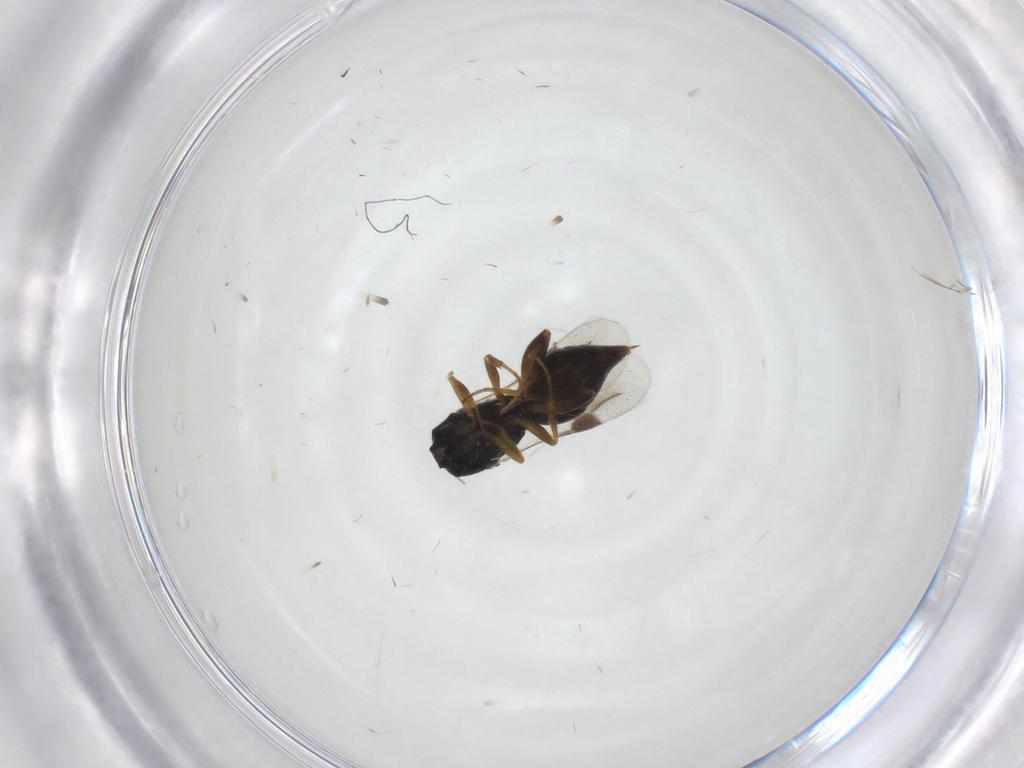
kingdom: Animalia
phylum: Arthropoda
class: Insecta
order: Hymenoptera
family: Megaspilidae
